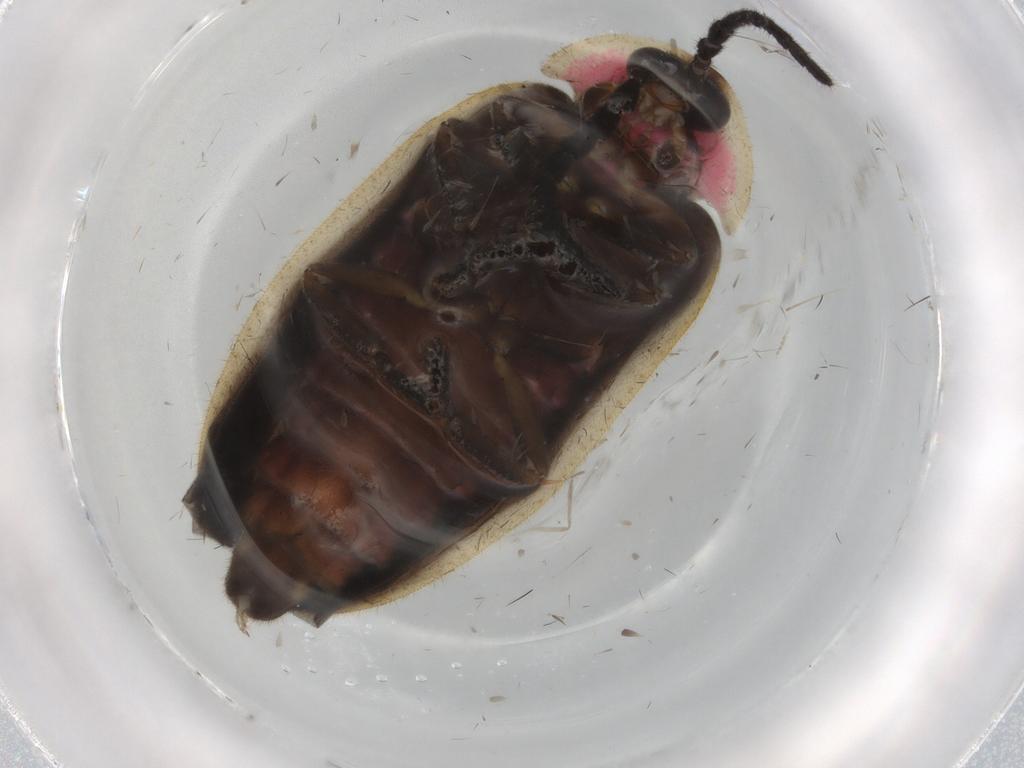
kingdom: Animalia
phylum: Arthropoda
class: Insecta
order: Coleoptera
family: Lampyridae
